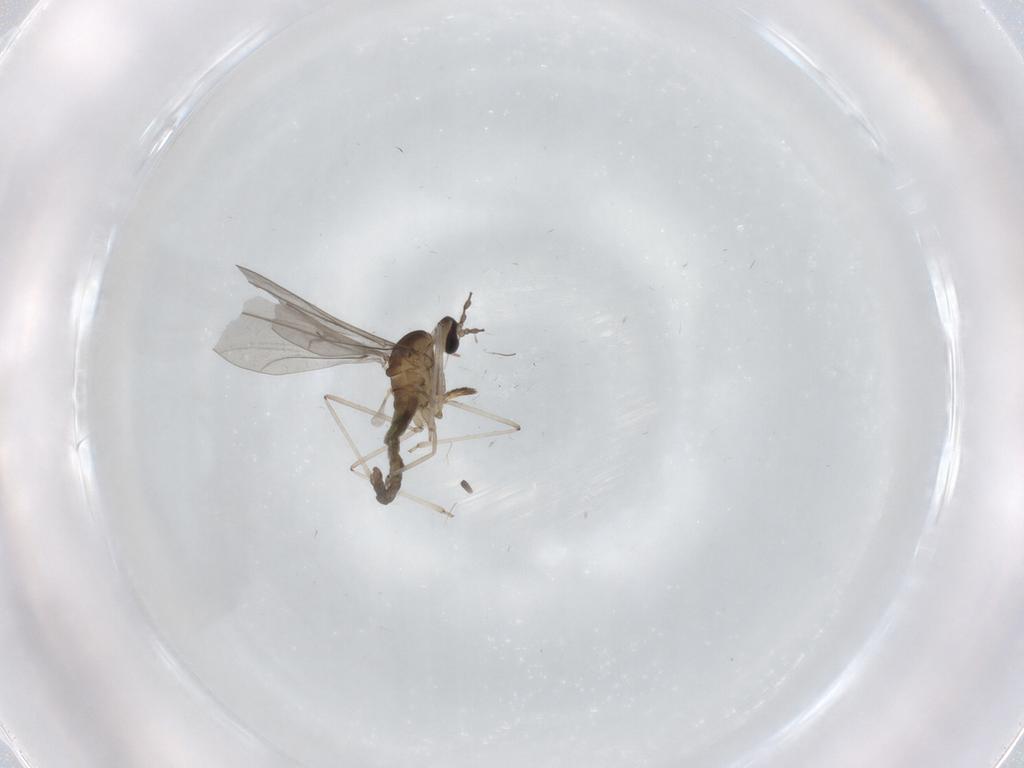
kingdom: Animalia
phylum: Arthropoda
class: Insecta
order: Diptera
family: Cecidomyiidae
